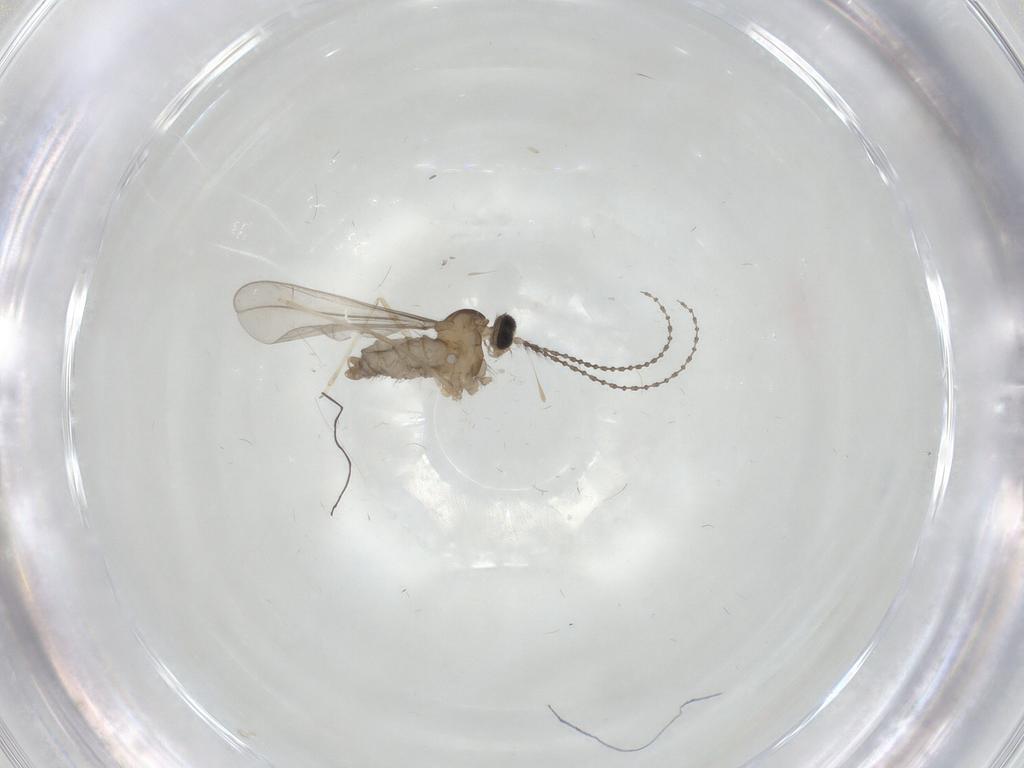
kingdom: Animalia
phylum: Arthropoda
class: Insecta
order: Diptera
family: Cecidomyiidae
